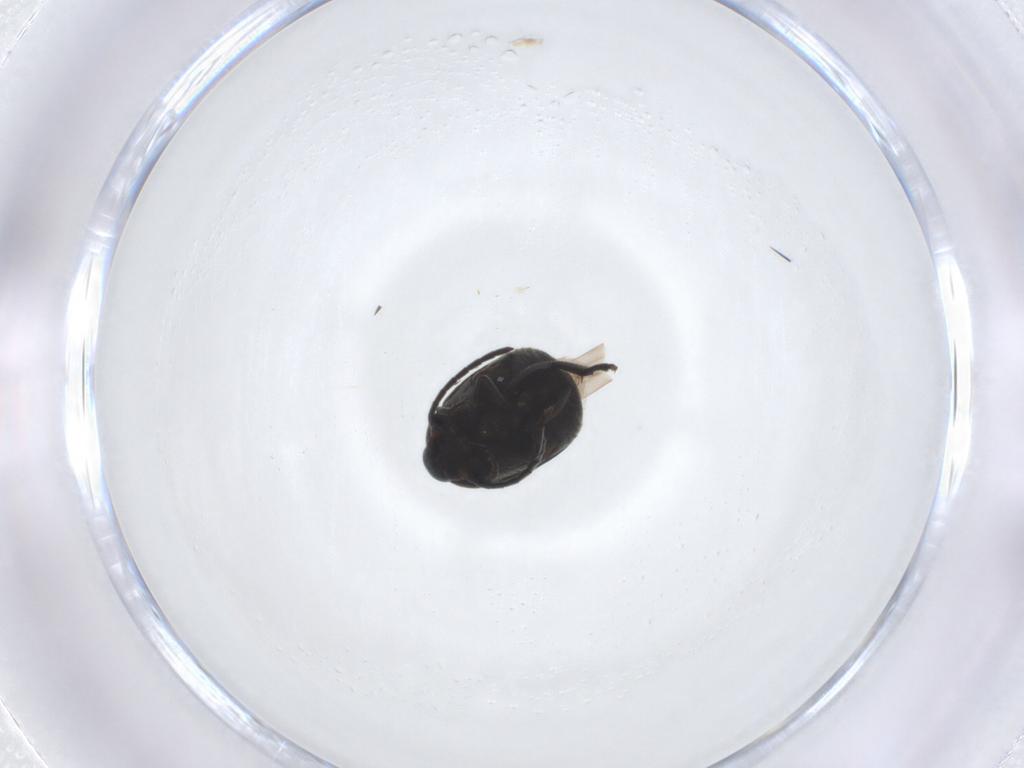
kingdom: Animalia
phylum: Arthropoda
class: Insecta
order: Coleoptera
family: Chrysomelidae
